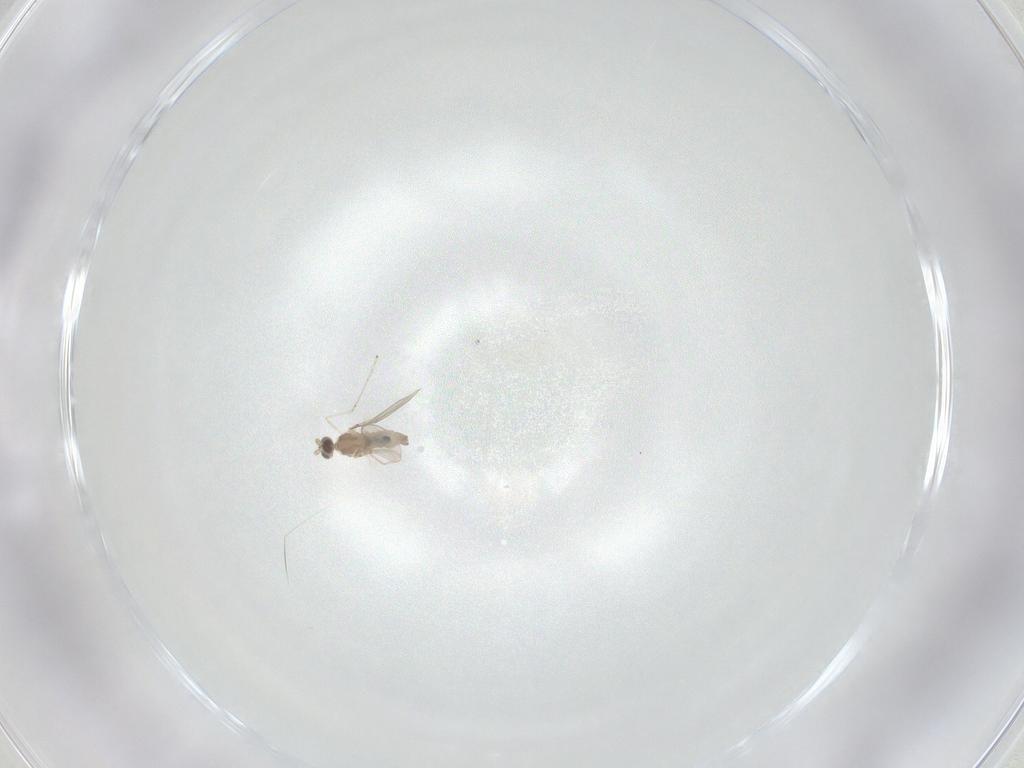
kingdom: Animalia
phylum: Arthropoda
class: Insecta
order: Diptera
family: Cecidomyiidae
